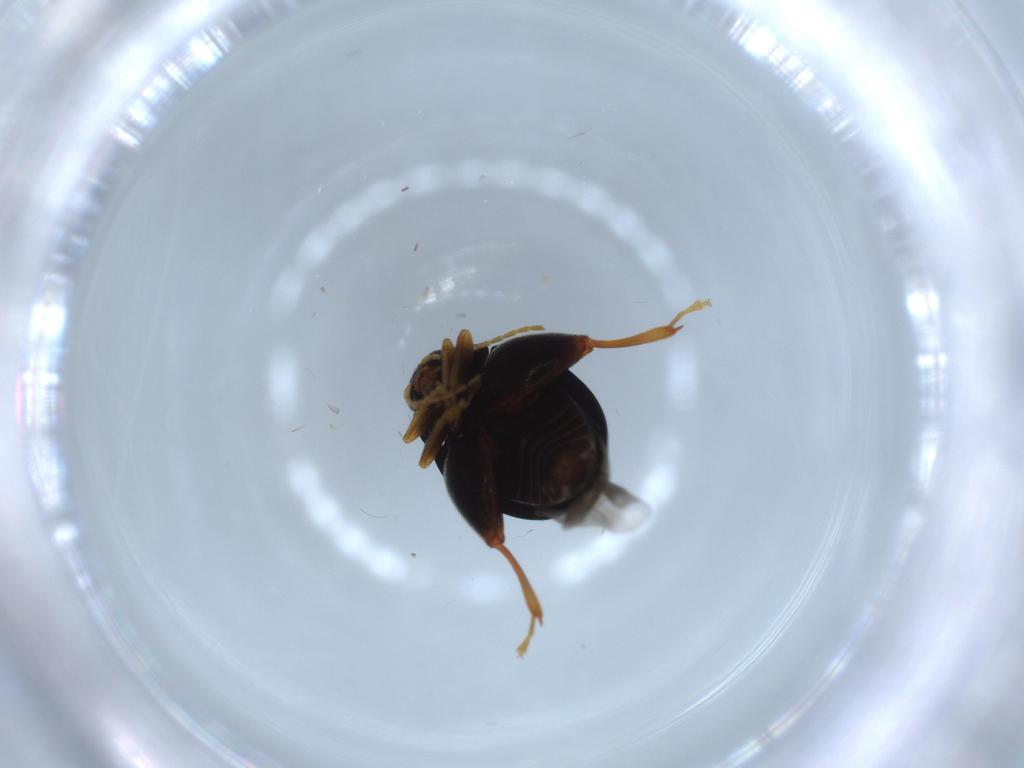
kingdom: Animalia
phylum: Arthropoda
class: Insecta
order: Coleoptera
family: Chrysomelidae
